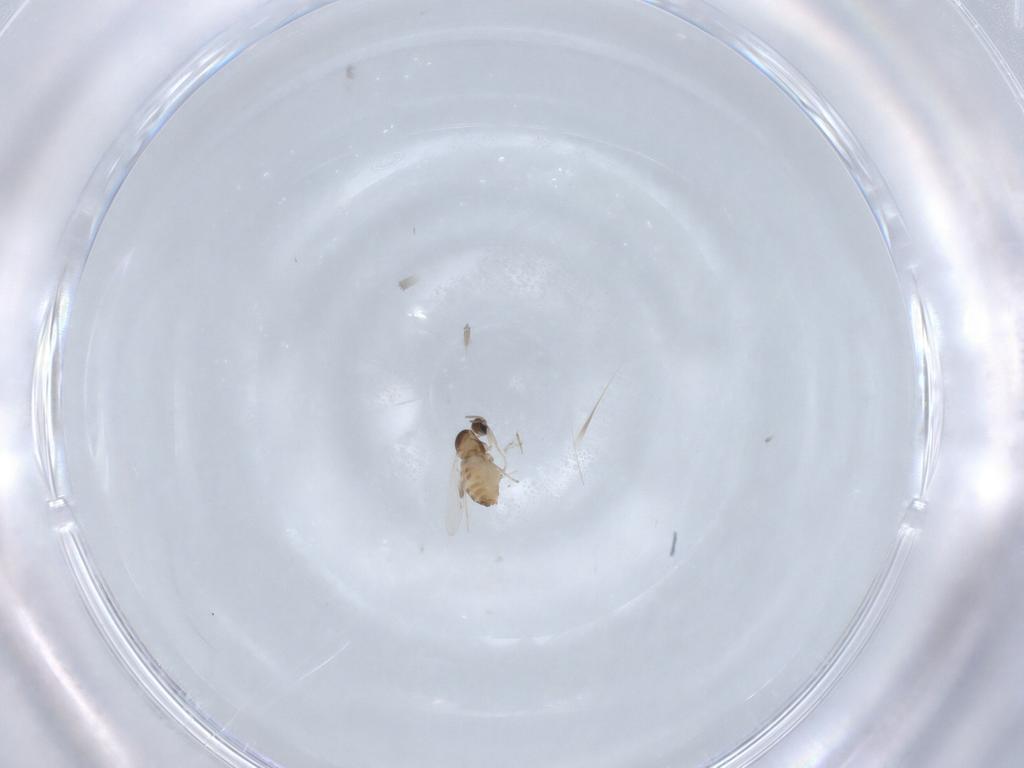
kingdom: Animalia
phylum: Arthropoda
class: Insecta
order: Diptera
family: Cecidomyiidae
